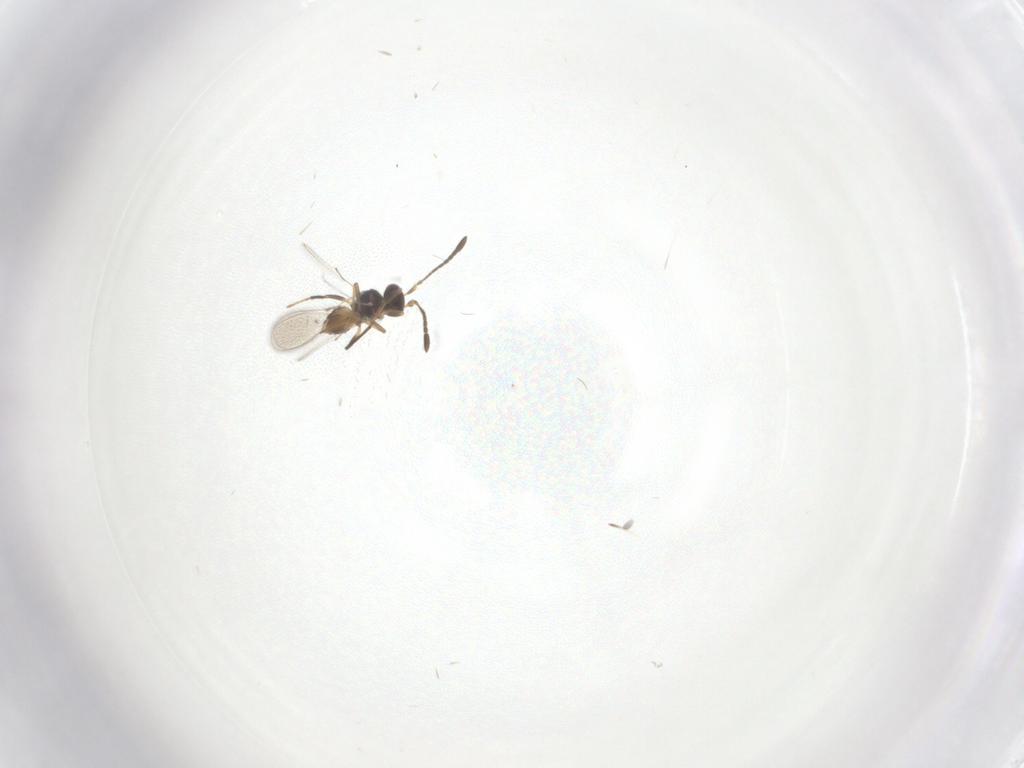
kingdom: Animalia
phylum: Arthropoda
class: Insecta
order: Hymenoptera
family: Mymaridae
